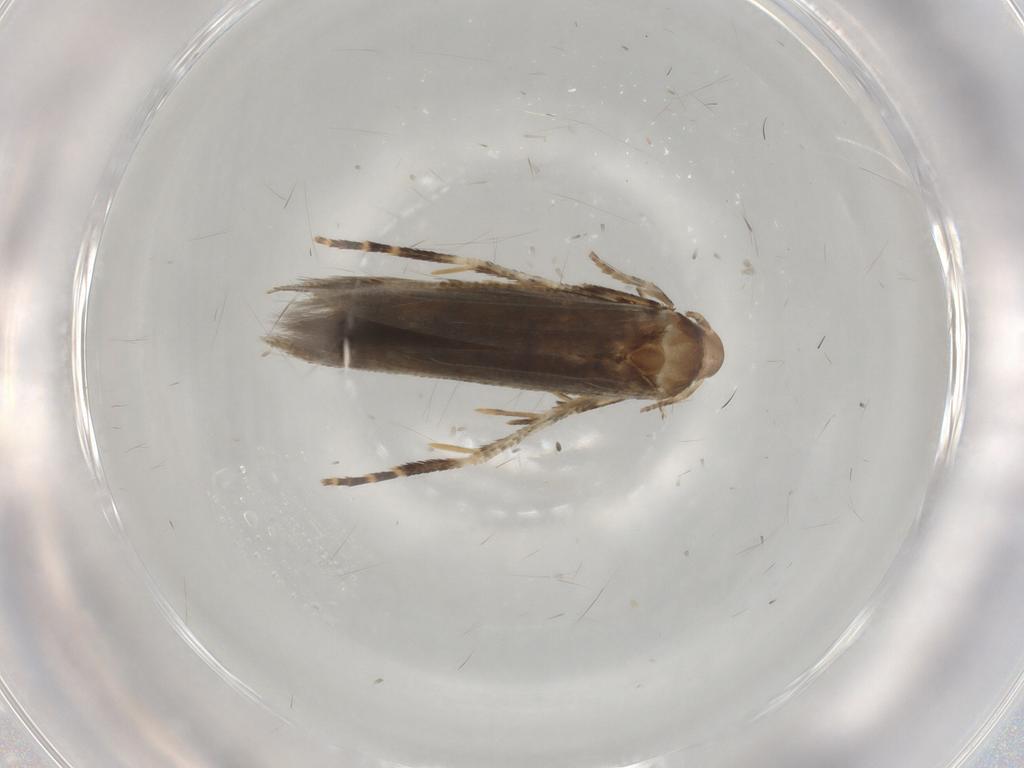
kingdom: Animalia
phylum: Arthropoda
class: Insecta
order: Lepidoptera
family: Momphidae
